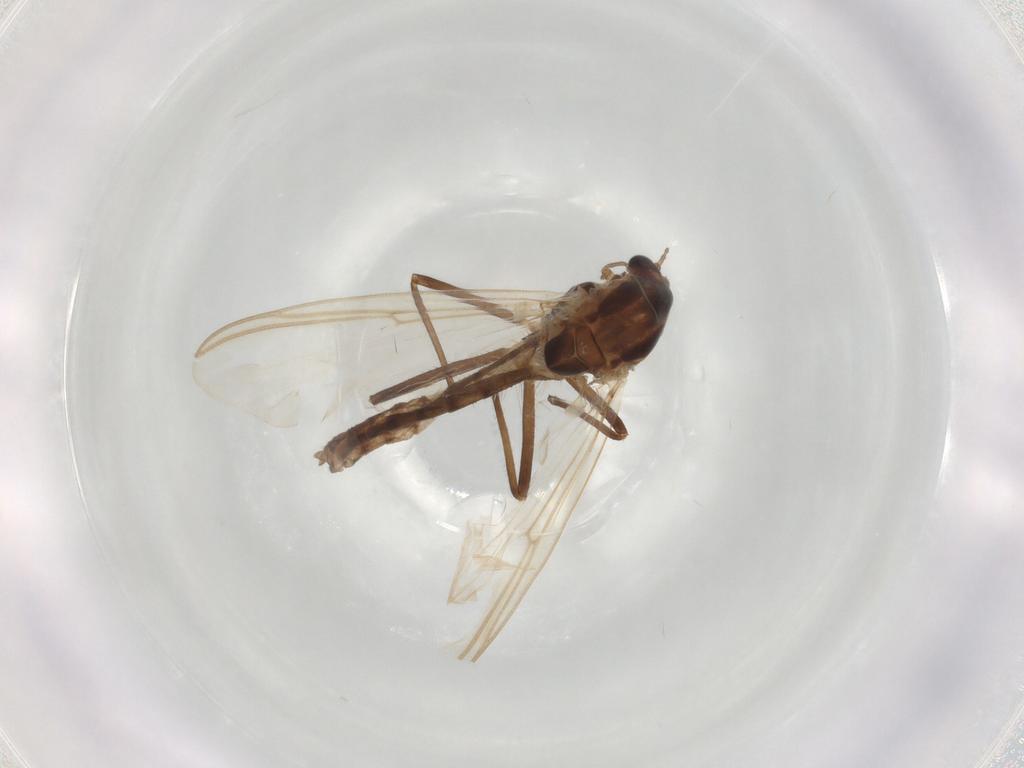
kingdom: Animalia
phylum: Arthropoda
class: Insecta
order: Diptera
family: Chironomidae
